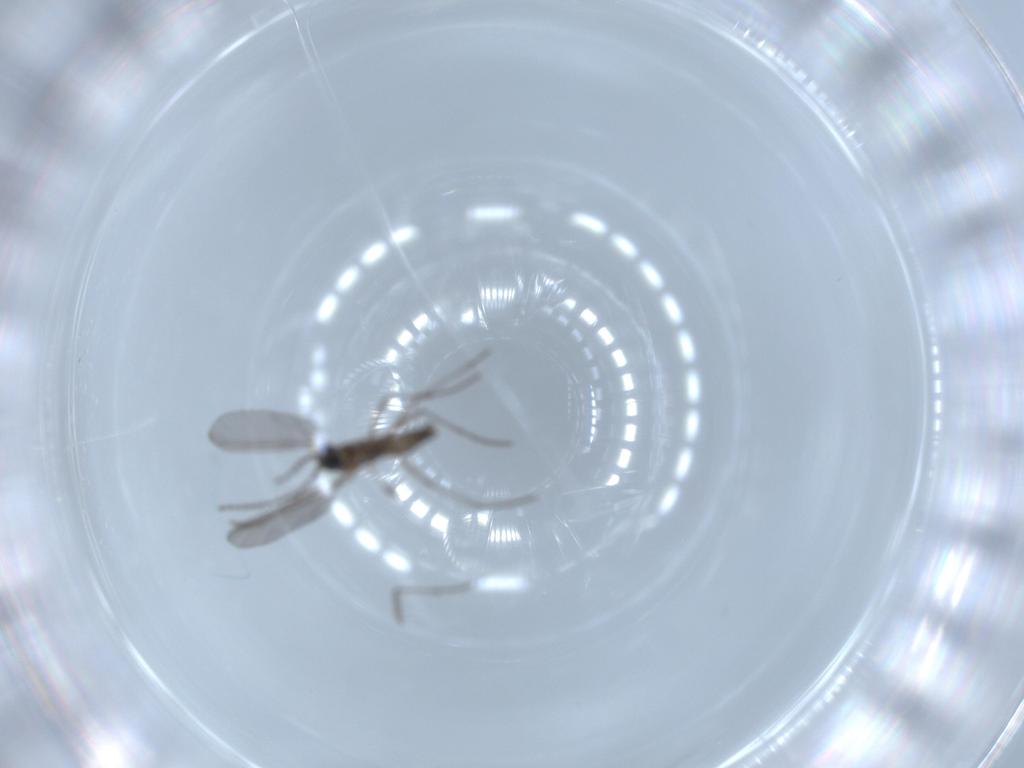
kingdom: Animalia
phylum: Arthropoda
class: Insecta
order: Diptera
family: Sciaridae
